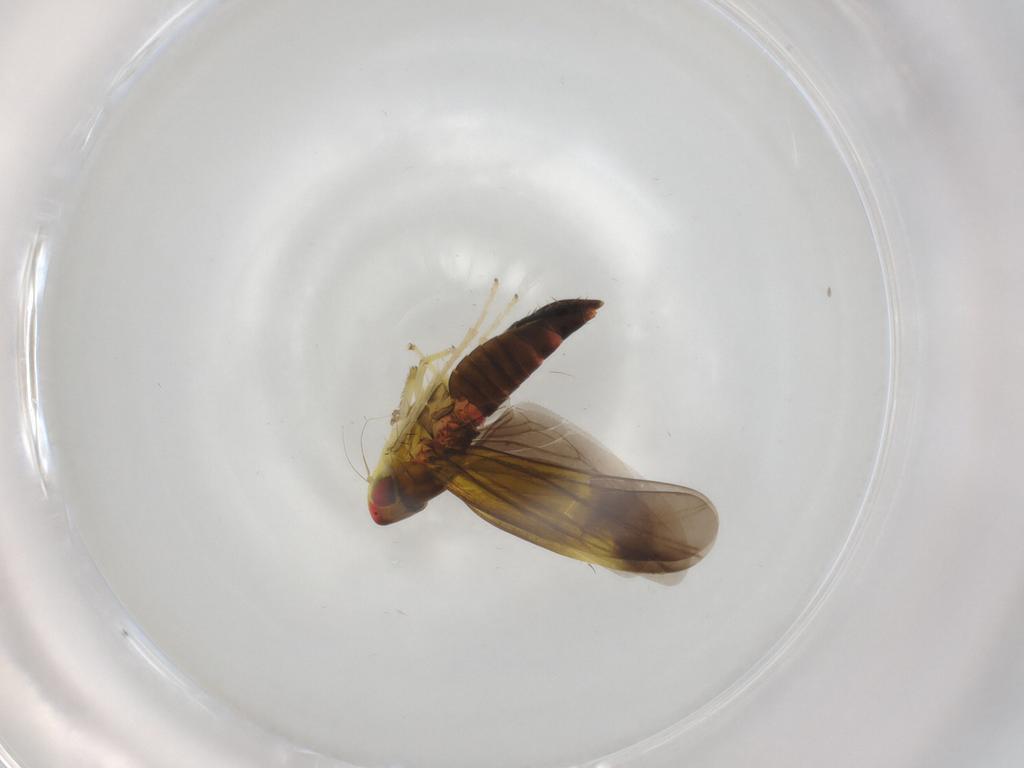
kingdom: Animalia
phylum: Arthropoda
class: Insecta
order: Hemiptera
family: Cicadellidae
